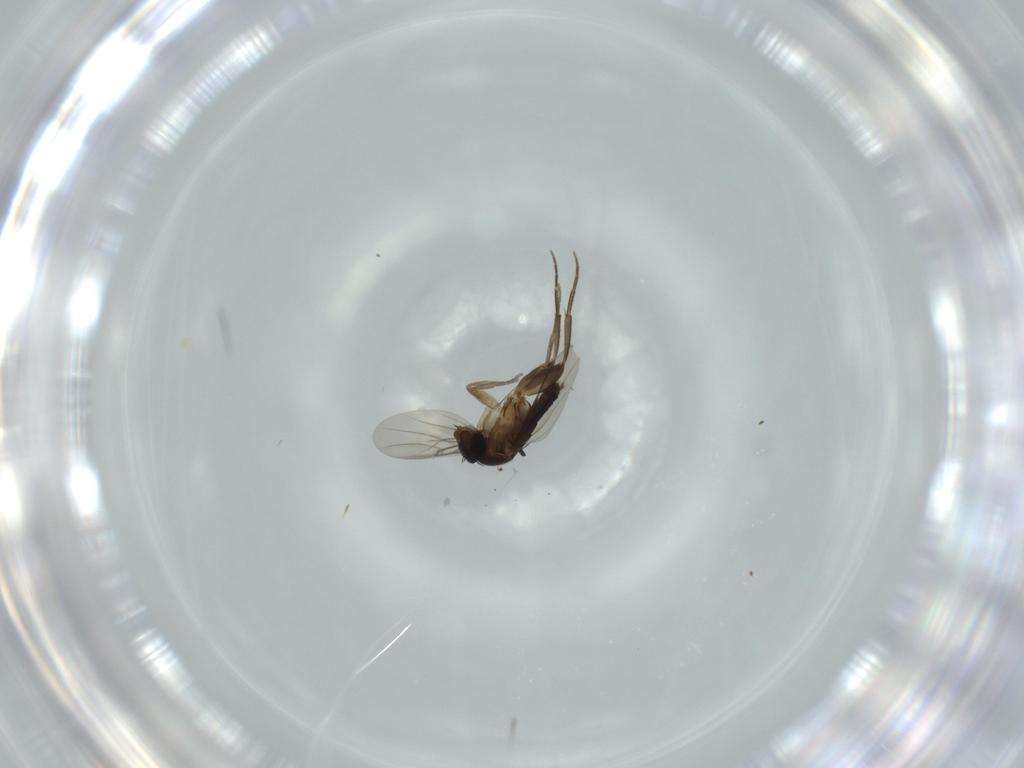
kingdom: Animalia
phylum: Arthropoda
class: Insecta
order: Diptera
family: Phoridae
